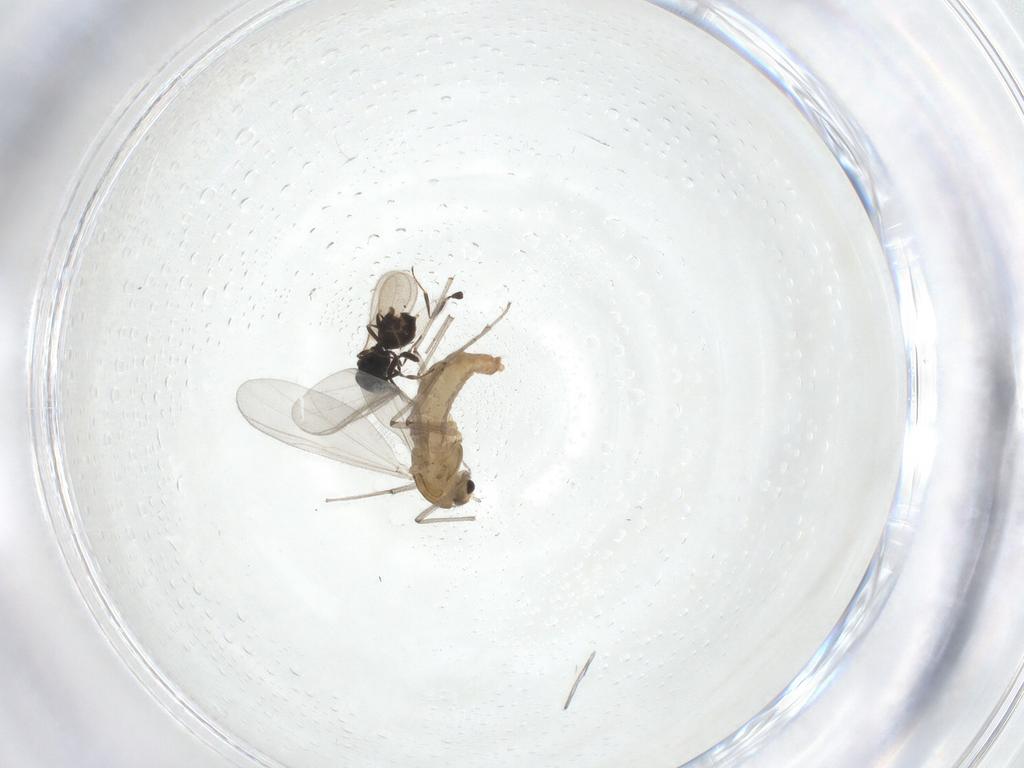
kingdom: Animalia
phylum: Arthropoda
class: Insecta
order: Diptera
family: Chironomidae
